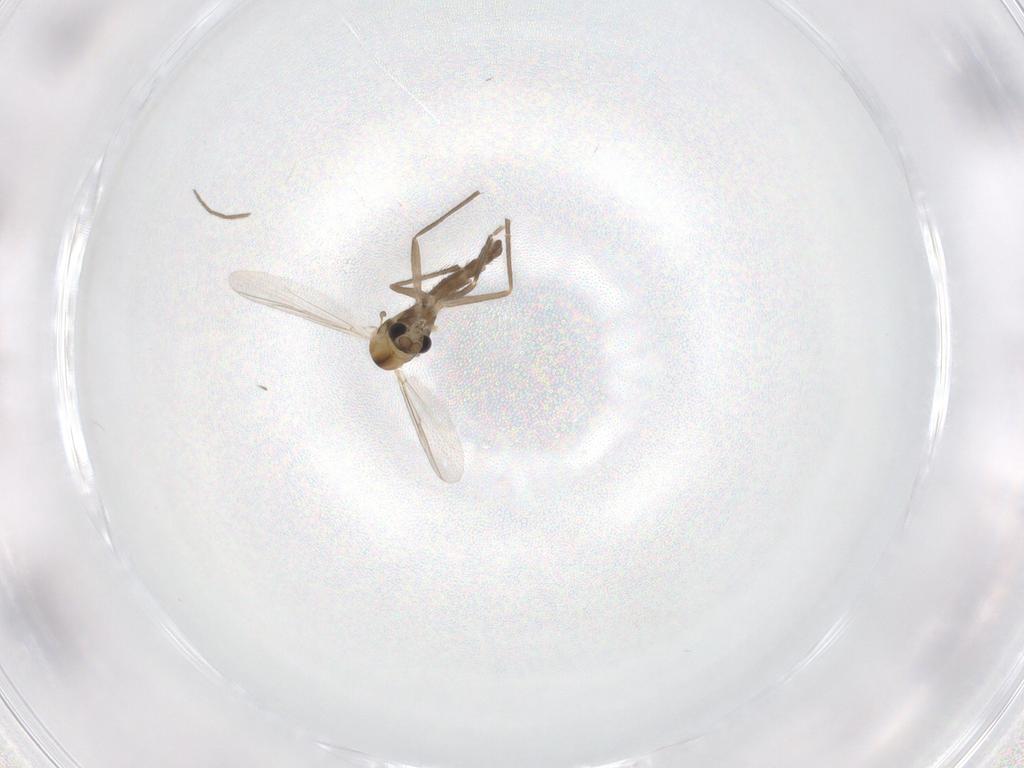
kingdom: Animalia
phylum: Arthropoda
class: Insecta
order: Diptera
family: Chironomidae
